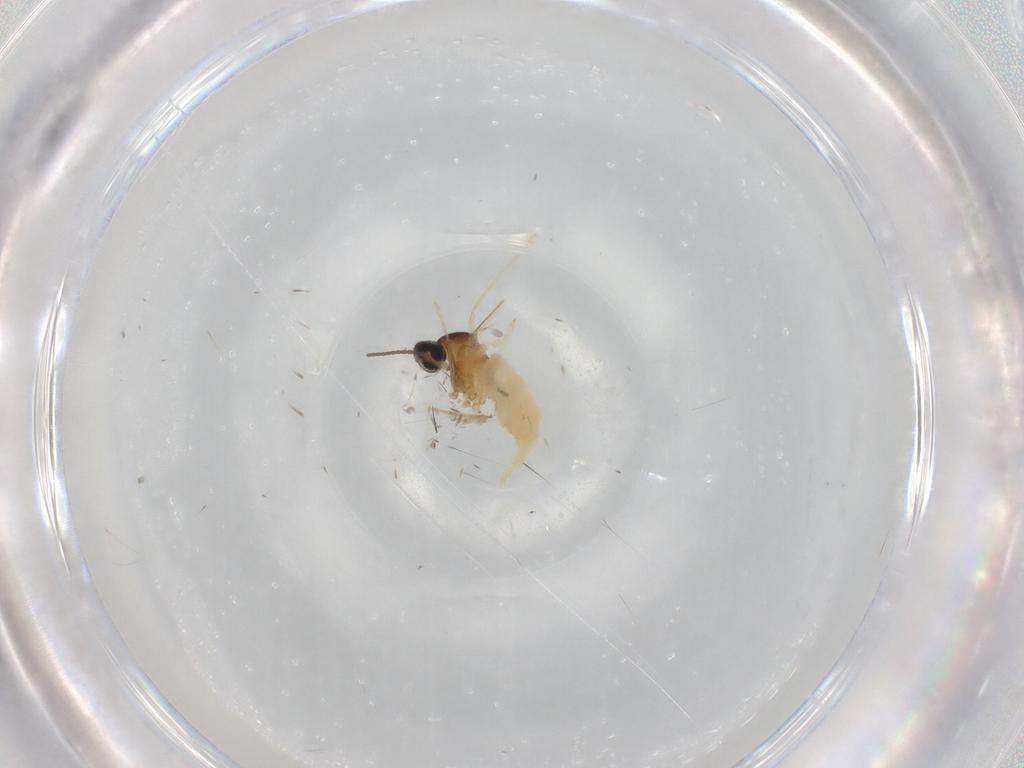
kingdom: Animalia
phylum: Arthropoda
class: Insecta
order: Diptera
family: Cecidomyiidae
